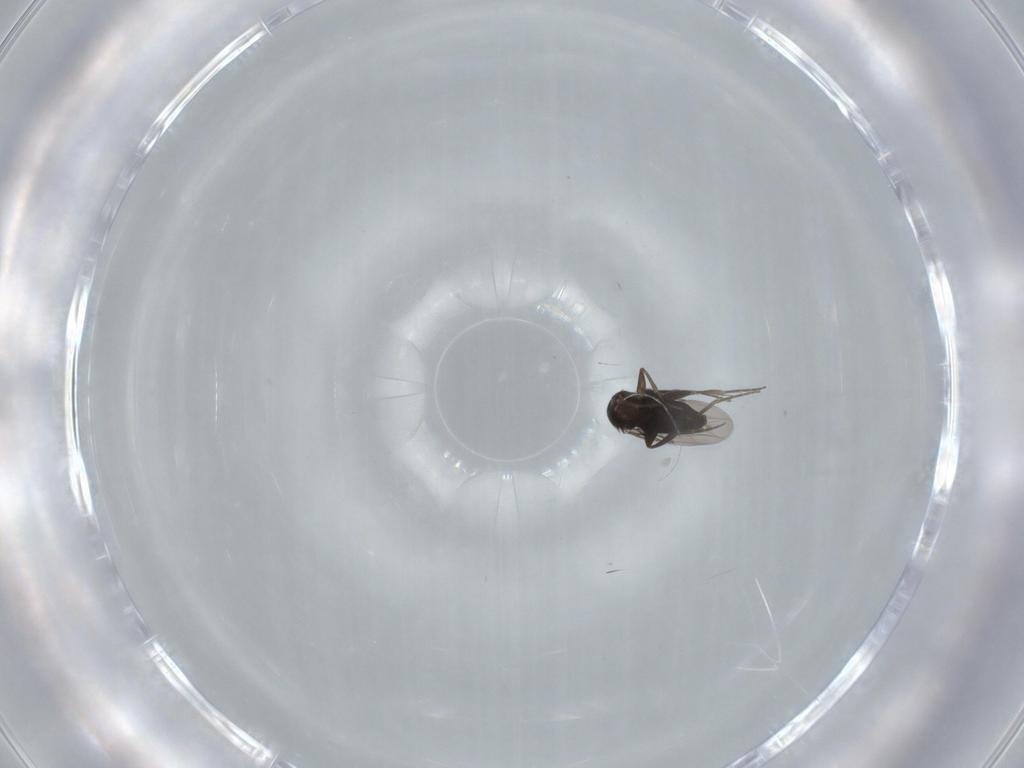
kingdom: Animalia
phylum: Arthropoda
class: Insecta
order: Diptera
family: Phoridae
